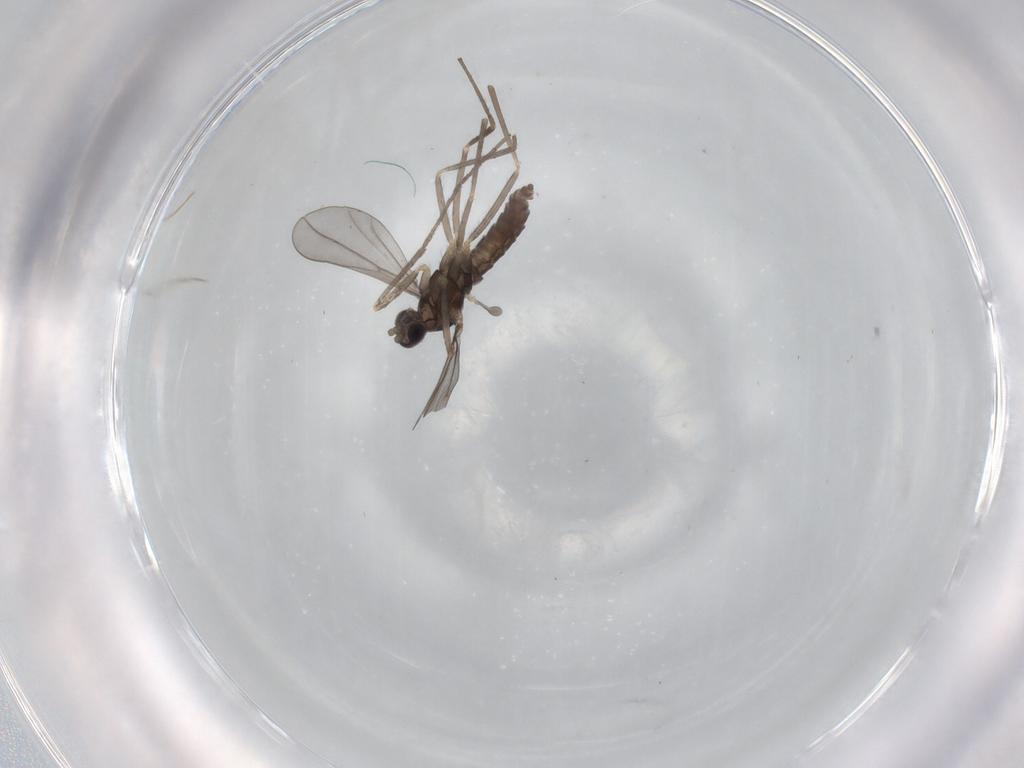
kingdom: Animalia
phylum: Arthropoda
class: Insecta
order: Diptera
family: Cecidomyiidae
